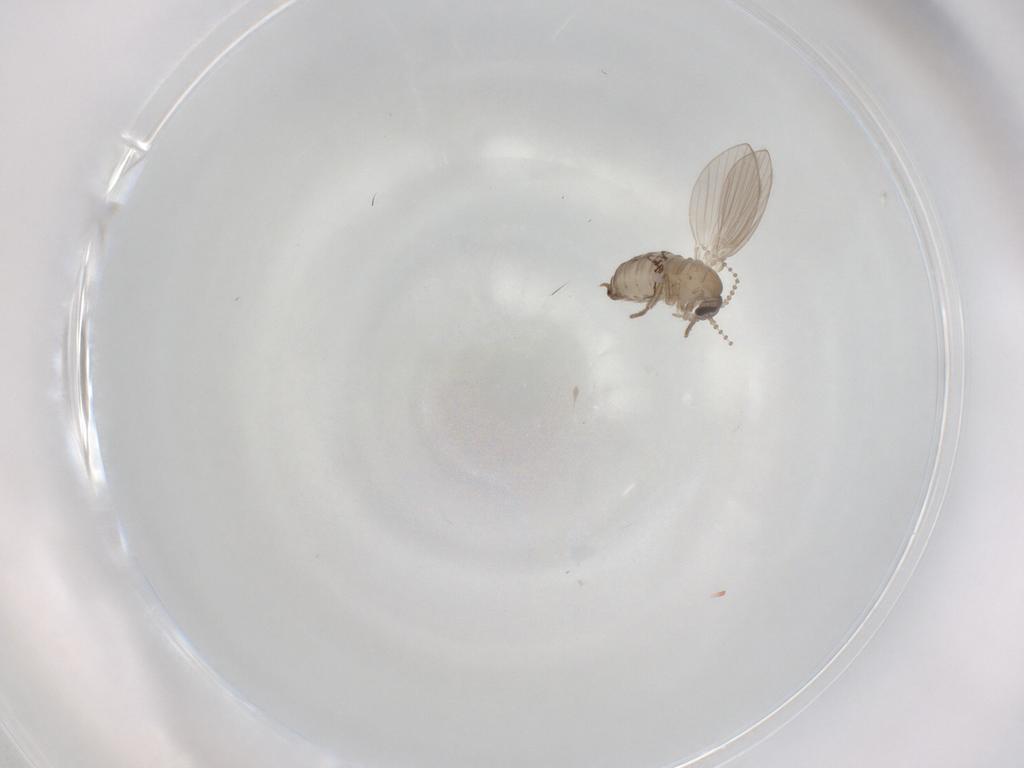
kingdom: Animalia
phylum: Arthropoda
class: Insecta
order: Diptera
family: Psychodidae
